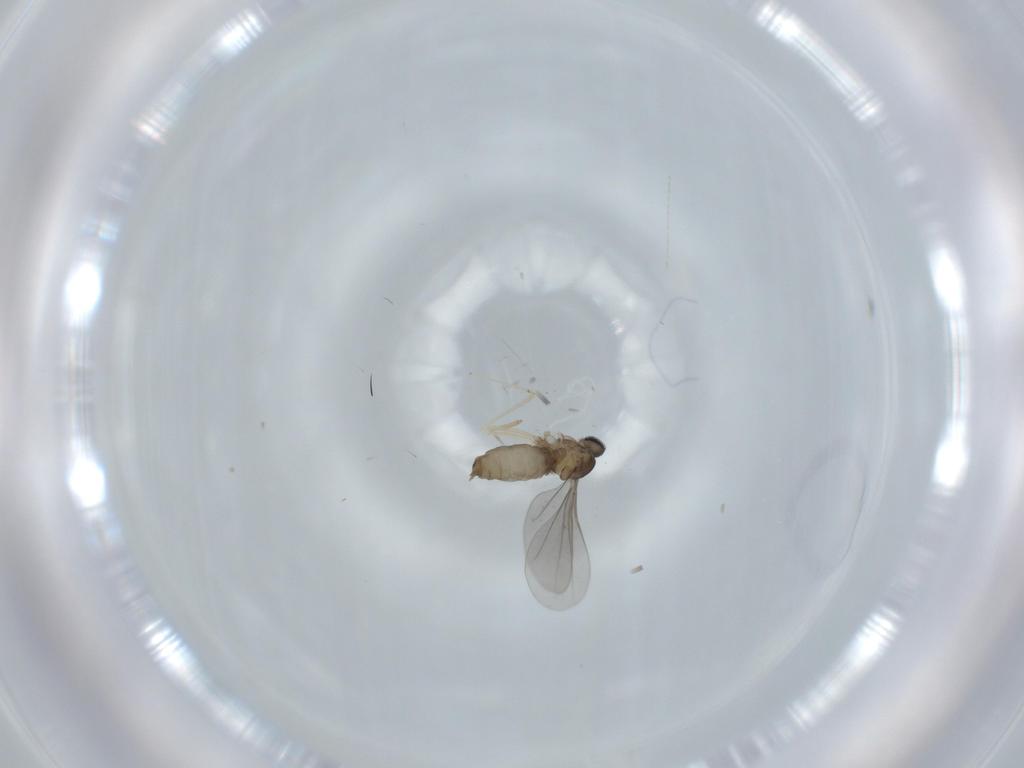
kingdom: Animalia
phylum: Arthropoda
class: Insecta
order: Diptera
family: Cecidomyiidae
